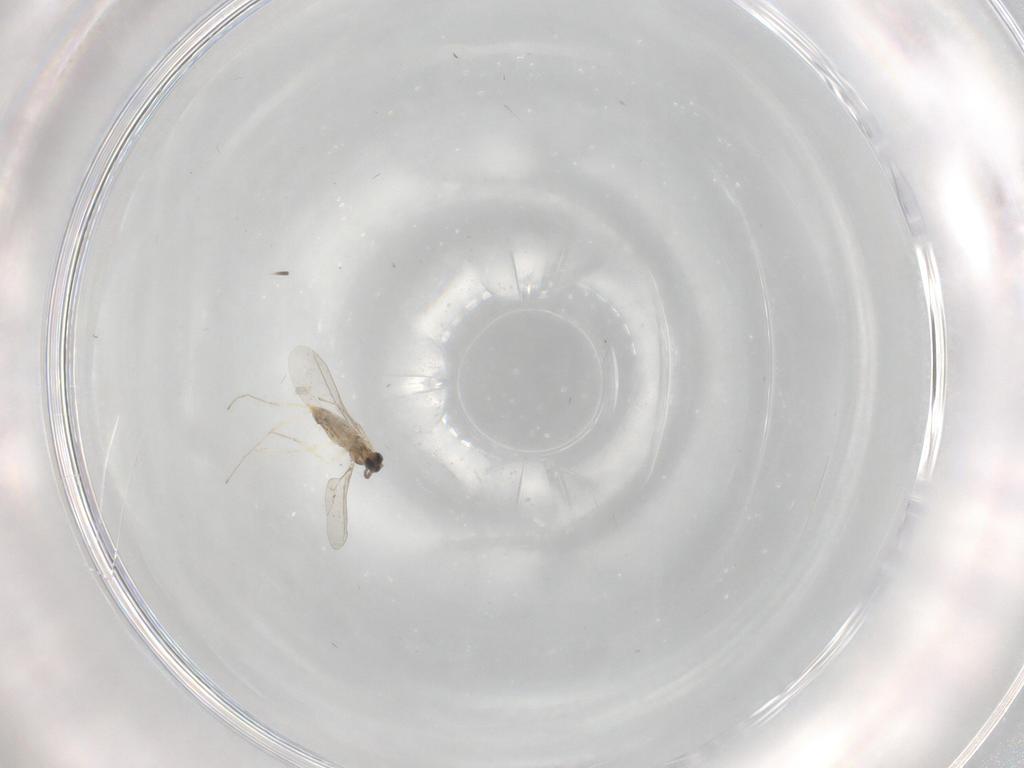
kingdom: Animalia
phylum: Arthropoda
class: Insecta
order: Diptera
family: Cecidomyiidae
